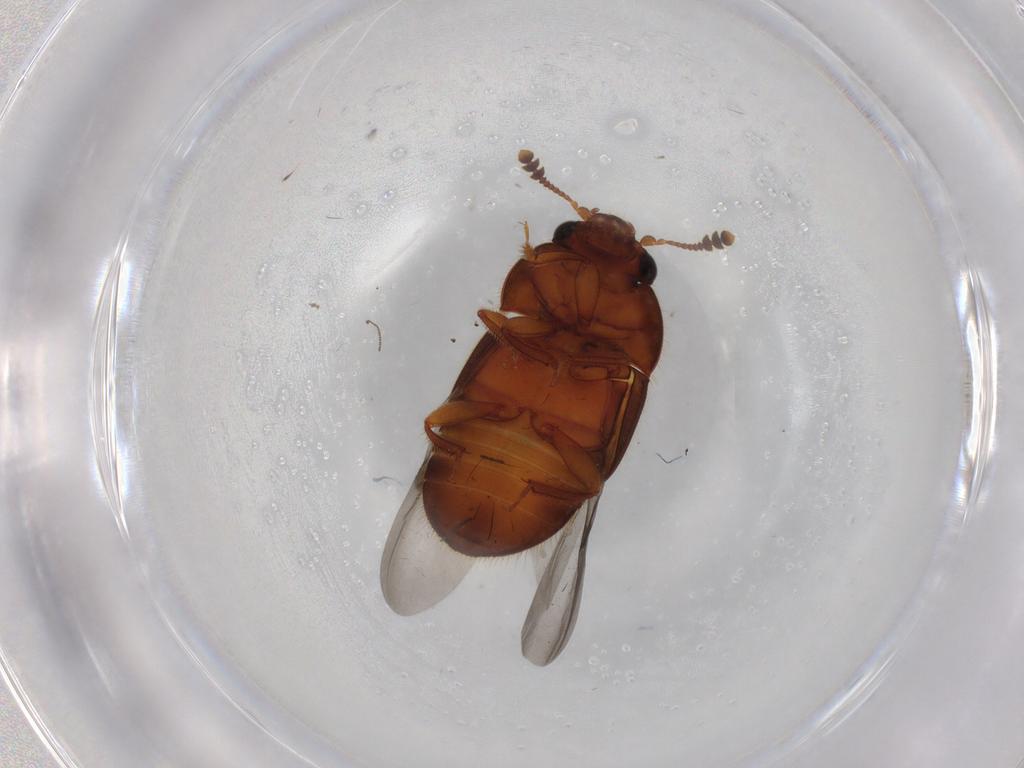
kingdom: Animalia
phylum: Arthropoda
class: Insecta
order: Coleoptera
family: Nitidulidae
